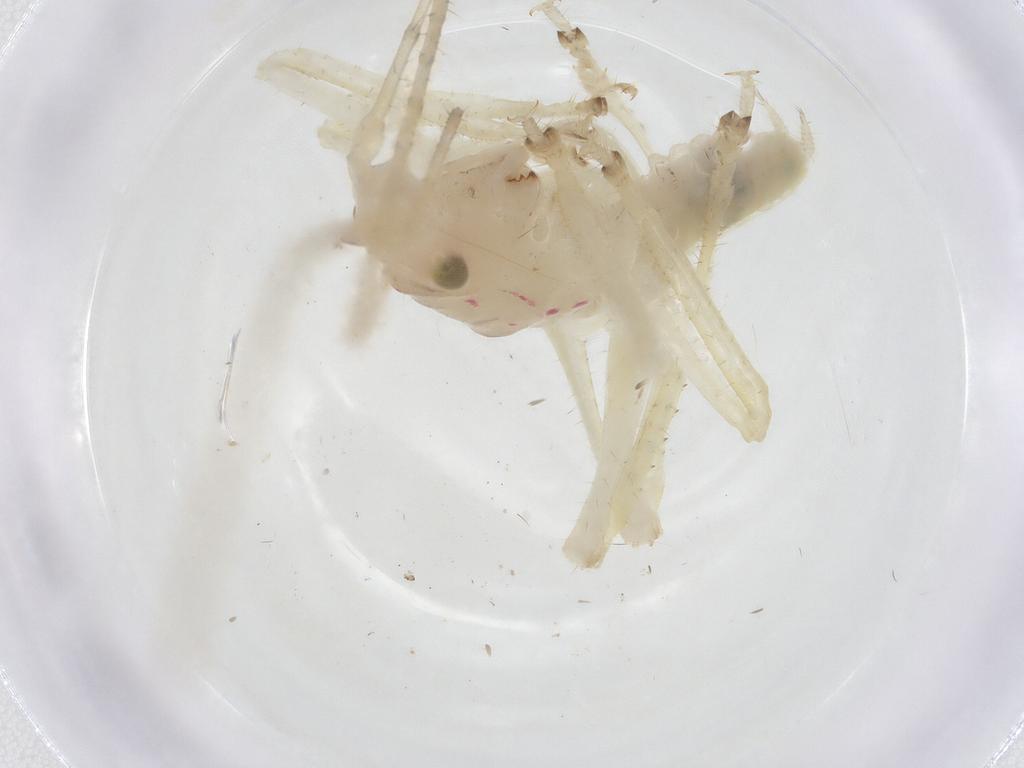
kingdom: Animalia
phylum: Arthropoda
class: Insecta
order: Orthoptera
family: Tettigoniidae
